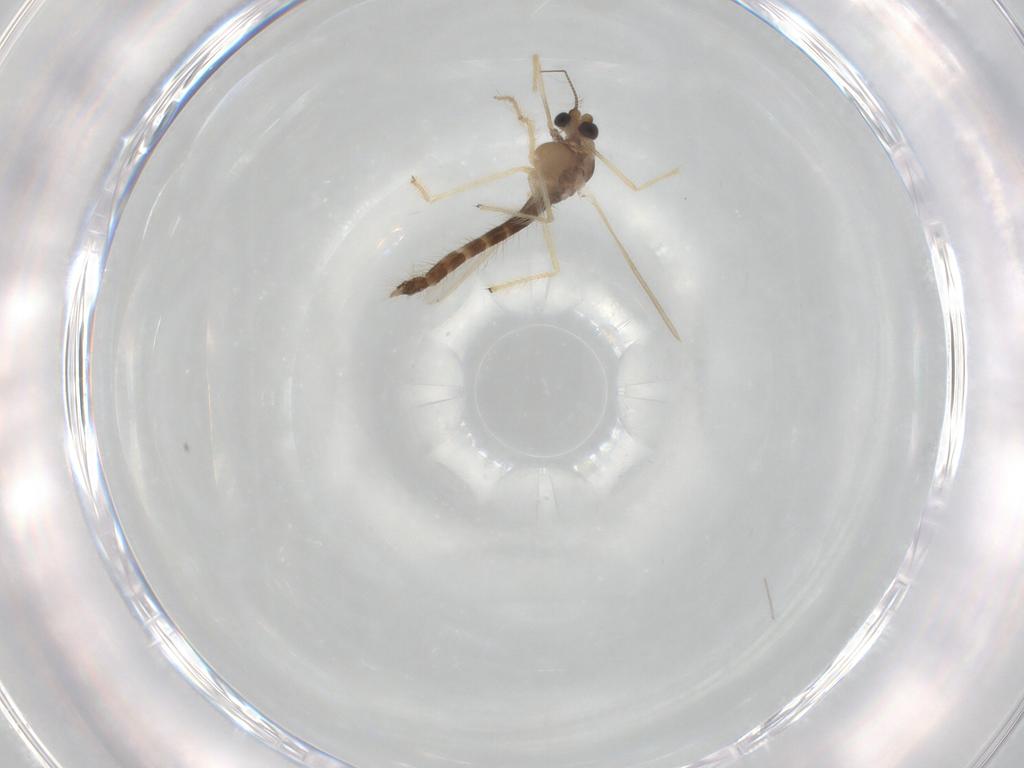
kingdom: Animalia
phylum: Arthropoda
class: Insecta
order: Diptera
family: Chironomidae
